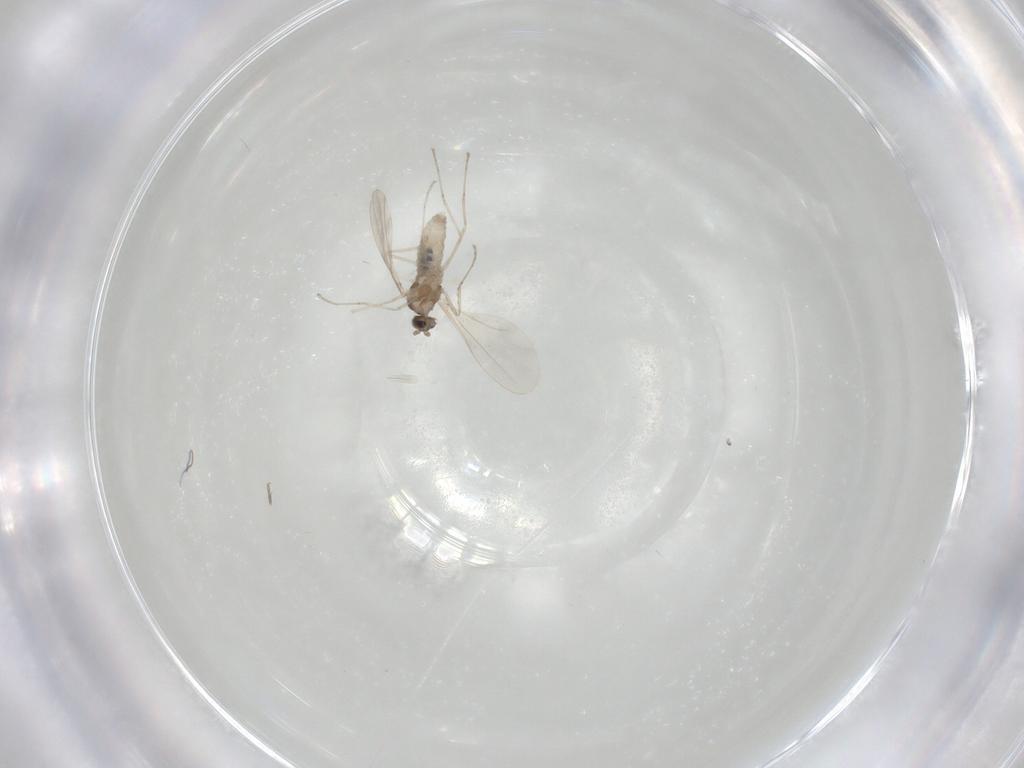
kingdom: Animalia
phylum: Arthropoda
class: Insecta
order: Diptera
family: Cecidomyiidae
